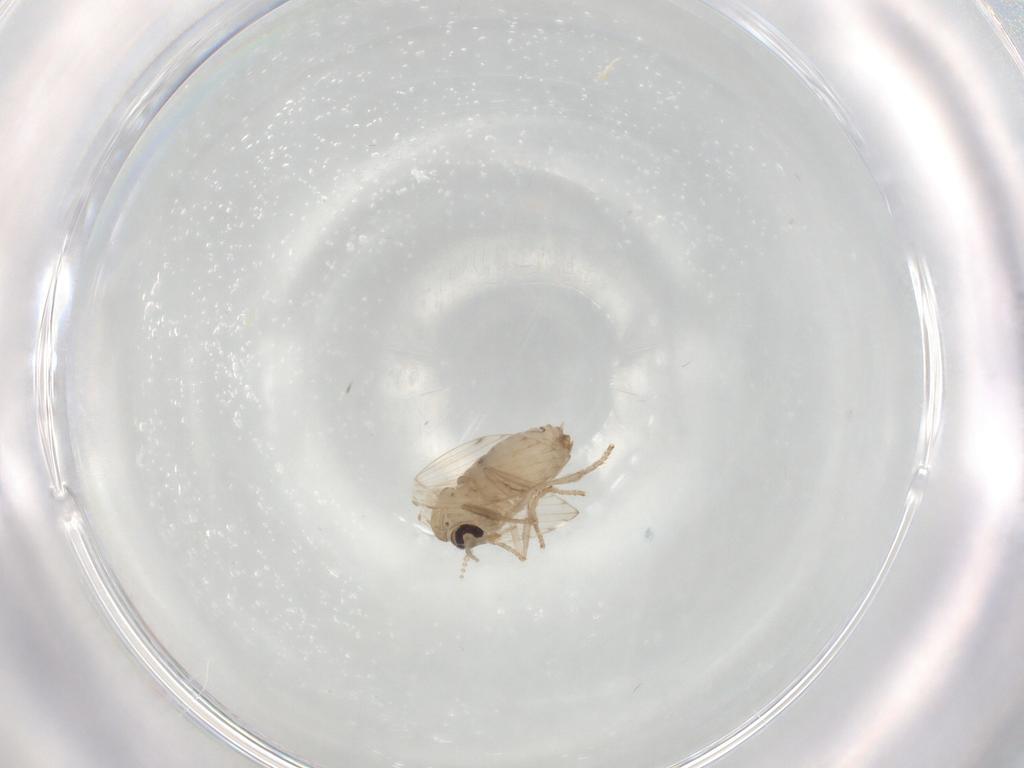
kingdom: Animalia
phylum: Arthropoda
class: Insecta
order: Diptera
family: Psychodidae
